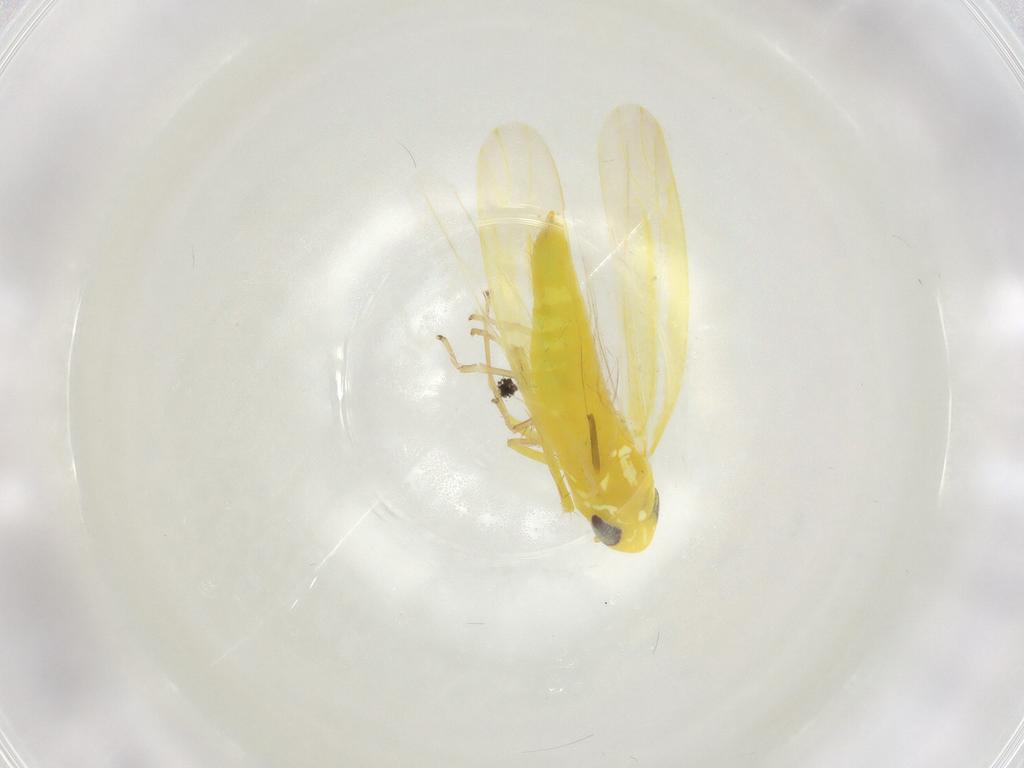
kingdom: Animalia
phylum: Arthropoda
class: Insecta
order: Hemiptera
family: Cicadellidae
